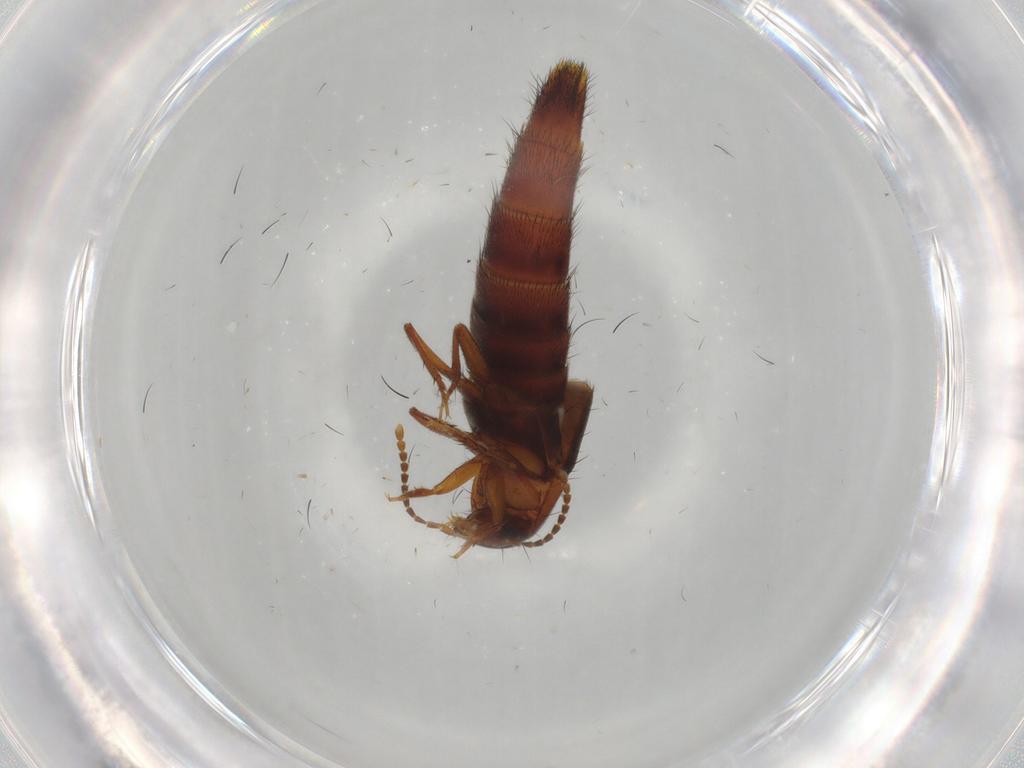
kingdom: Animalia
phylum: Arthropoda
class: Insecta
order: Coleoptera
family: Staphylinidae
